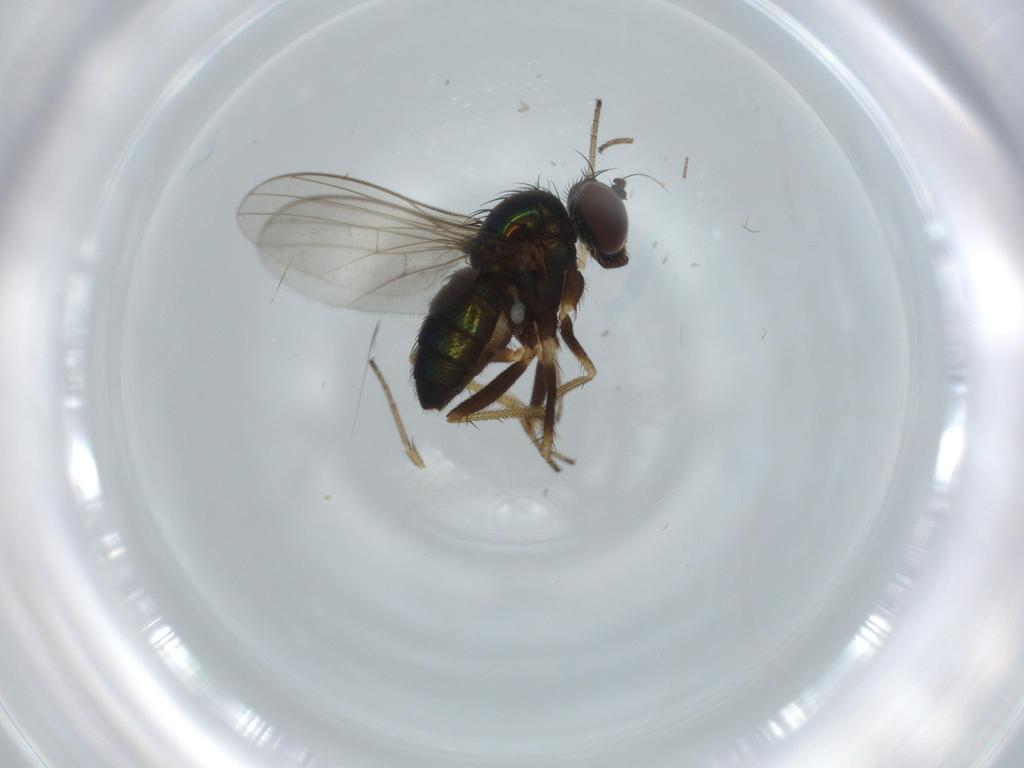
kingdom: Animalia
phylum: Arthropoda
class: Insecta
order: Diptera
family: Dolichopodidae
